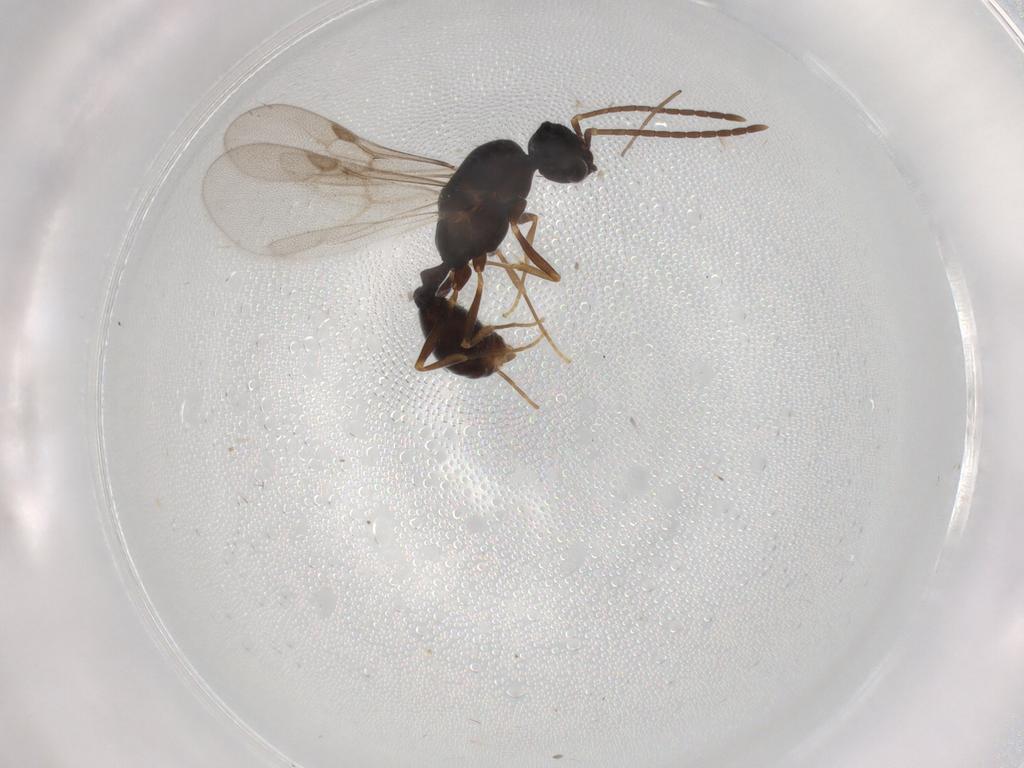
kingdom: Animalia
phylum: Arthropoda
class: Insecta
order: Hymenoptera
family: Formicidae
